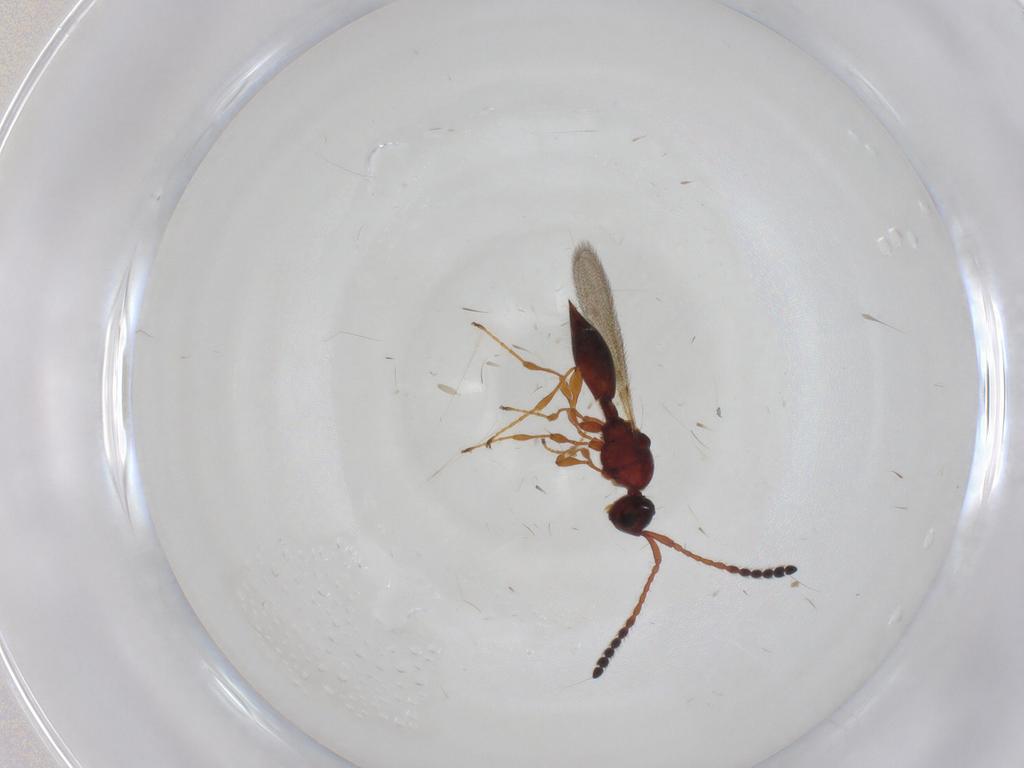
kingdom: Animalia
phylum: Arthropoda
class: Insecta
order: Hymenoptera
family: Diapriidae
